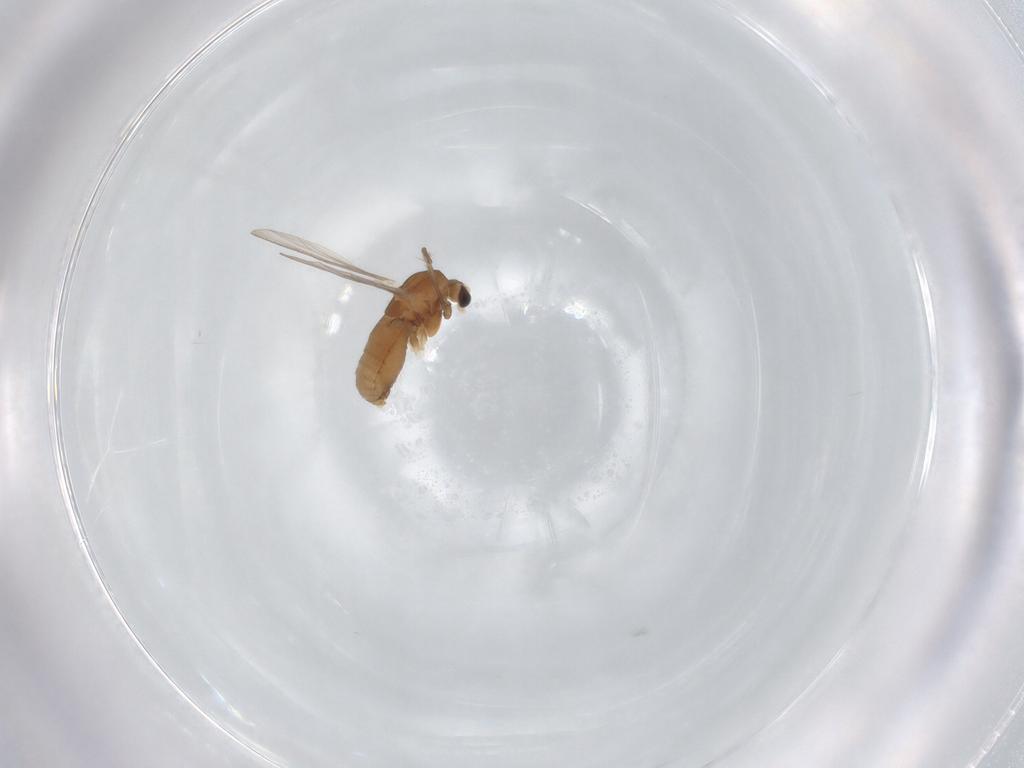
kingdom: Animalia
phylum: Arthropoda
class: Insecta
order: Diptera
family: Chironomidae
